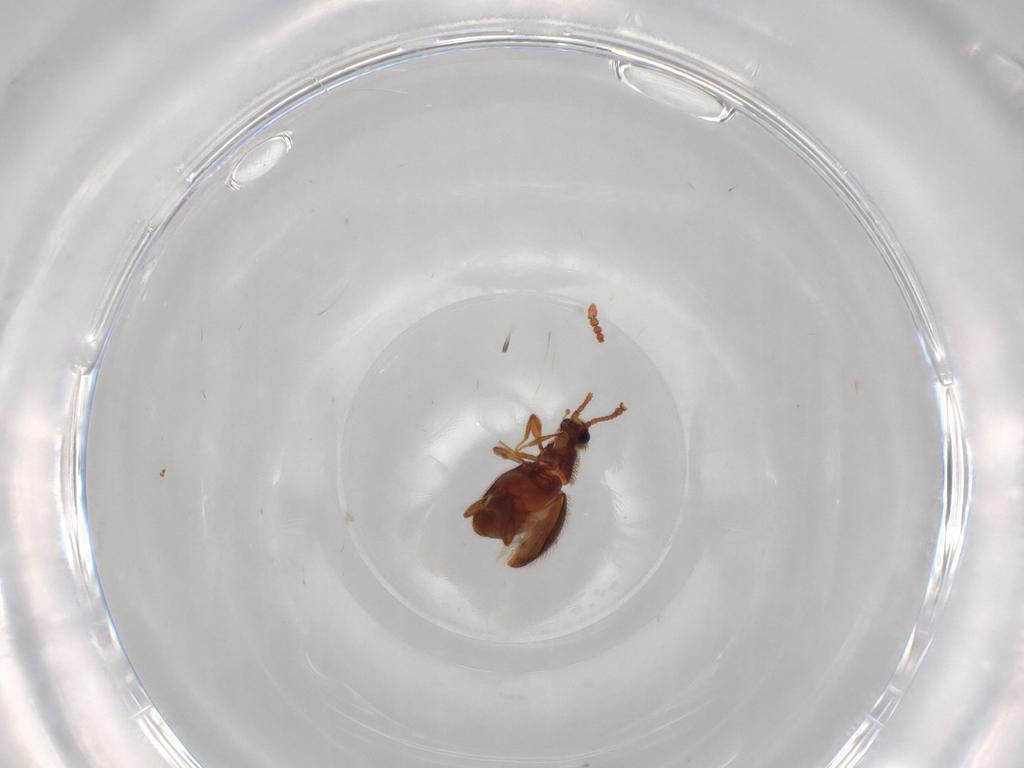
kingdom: Animalia
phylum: Arthropoda
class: Insecta
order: Coleoptera
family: Staphylinidae
